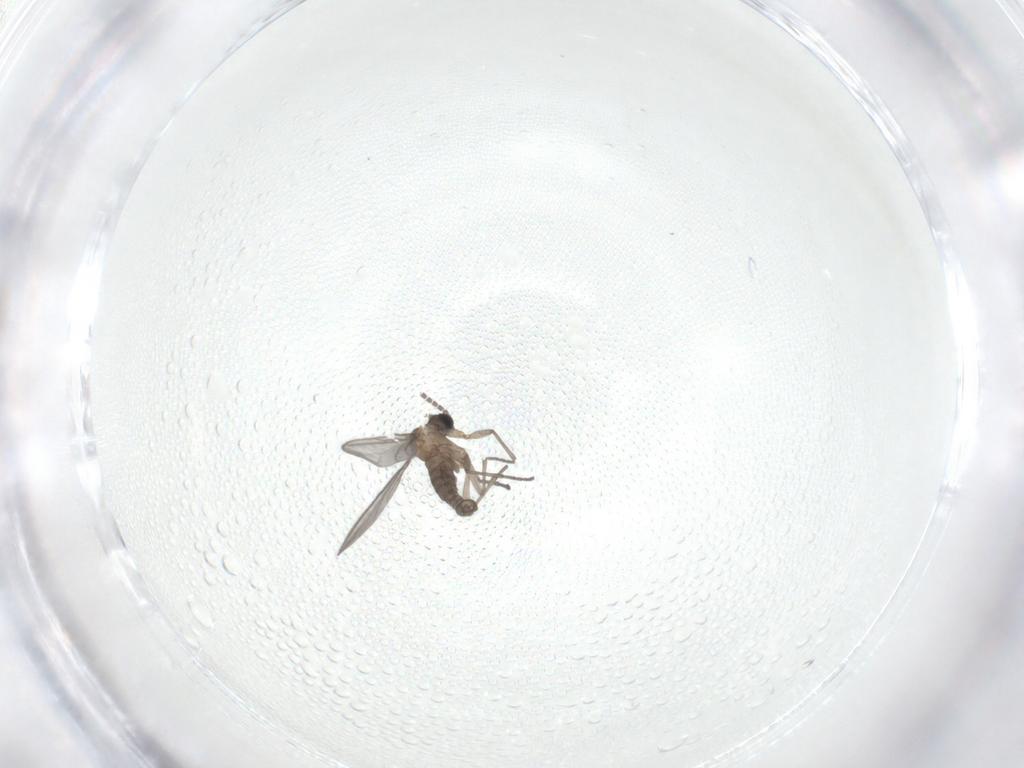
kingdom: Animalia
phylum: Arthropoda
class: Insecta
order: Diptera
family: Sciaridae
